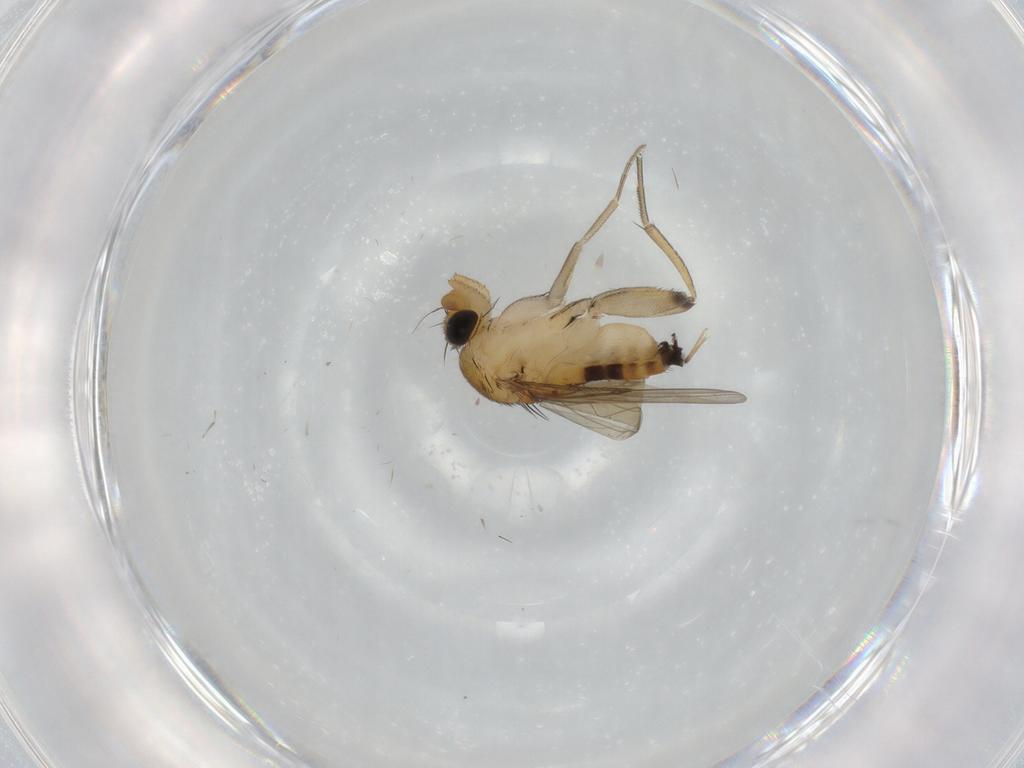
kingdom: Animalia
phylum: Arthropoda
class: Insecta
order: Diptera
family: Phoridae
